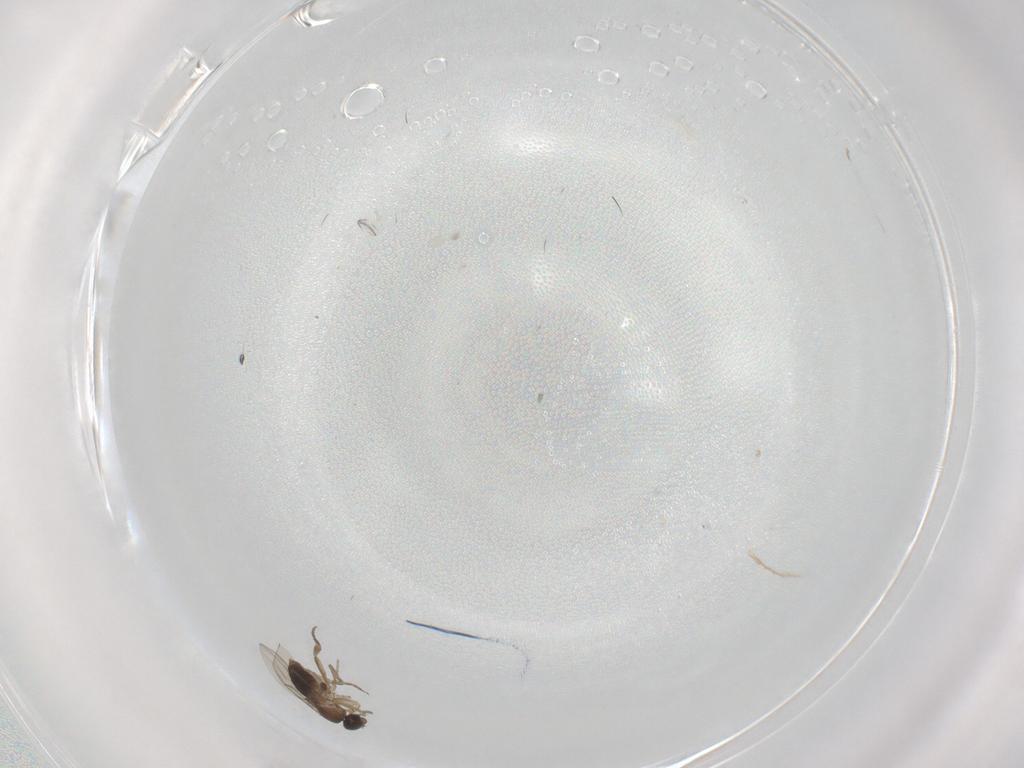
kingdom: Animalia
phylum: Arthropoda
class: Insecta
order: Diptera
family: Phoridae
